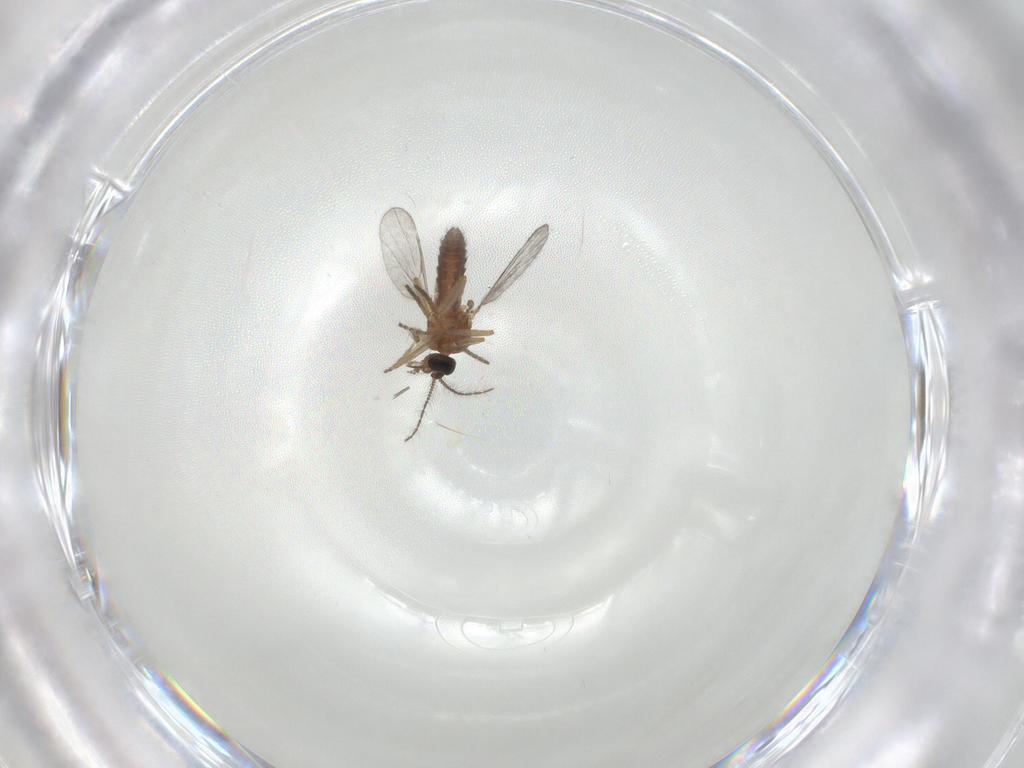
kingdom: Animalia
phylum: Arthropoda
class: Insecta
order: Diptera
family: Ceratopogonidae
